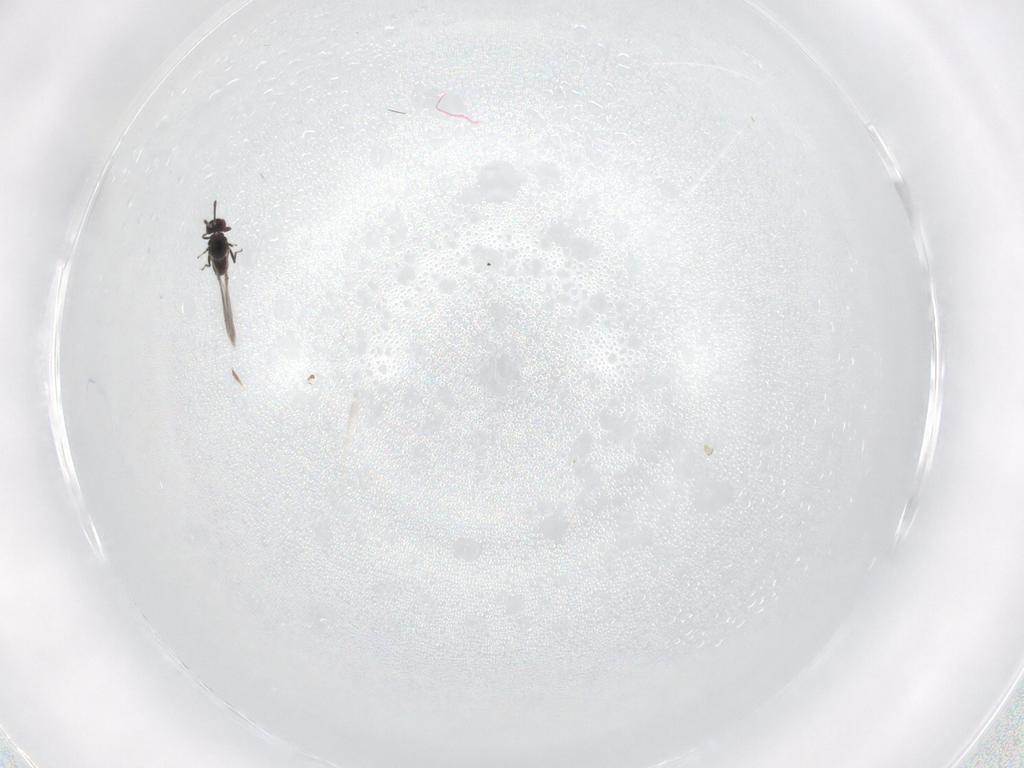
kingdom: Animalia
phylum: Arthropoda
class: Insecta
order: Hymenoptera
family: Mymaridae
